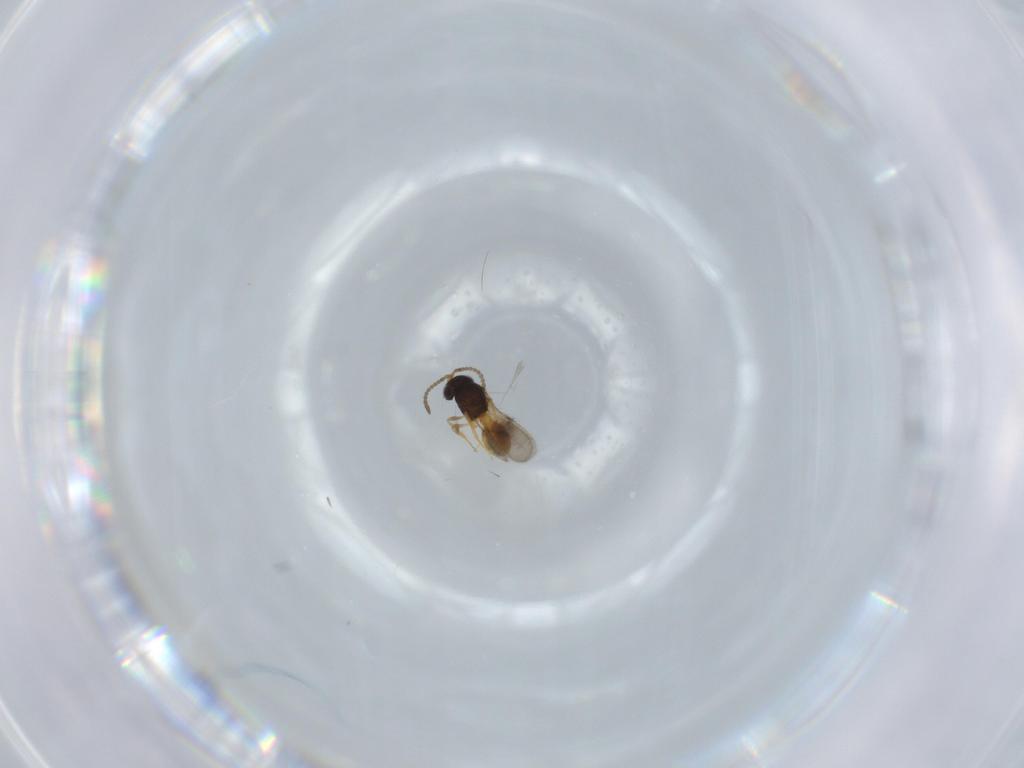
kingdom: Animalia
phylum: Arthropoda
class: Insecta
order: Hymenoptera
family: Scelionidae
